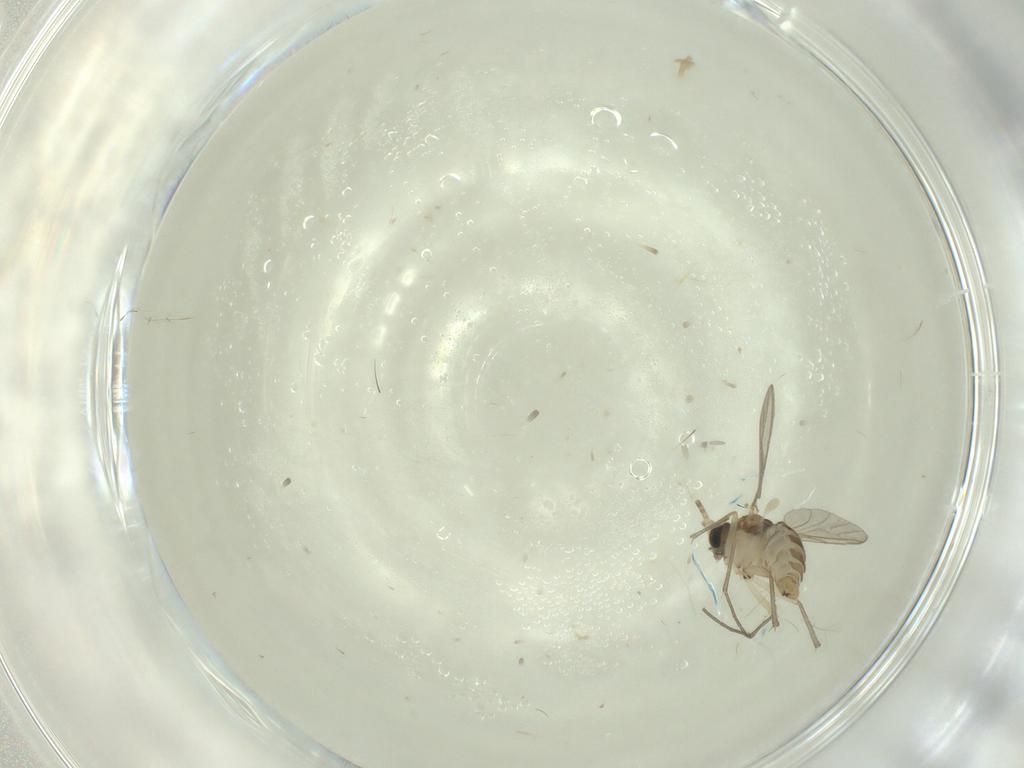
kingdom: Animalia
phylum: Arthropoda
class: Insecta
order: Diptera
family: Sciaridae
